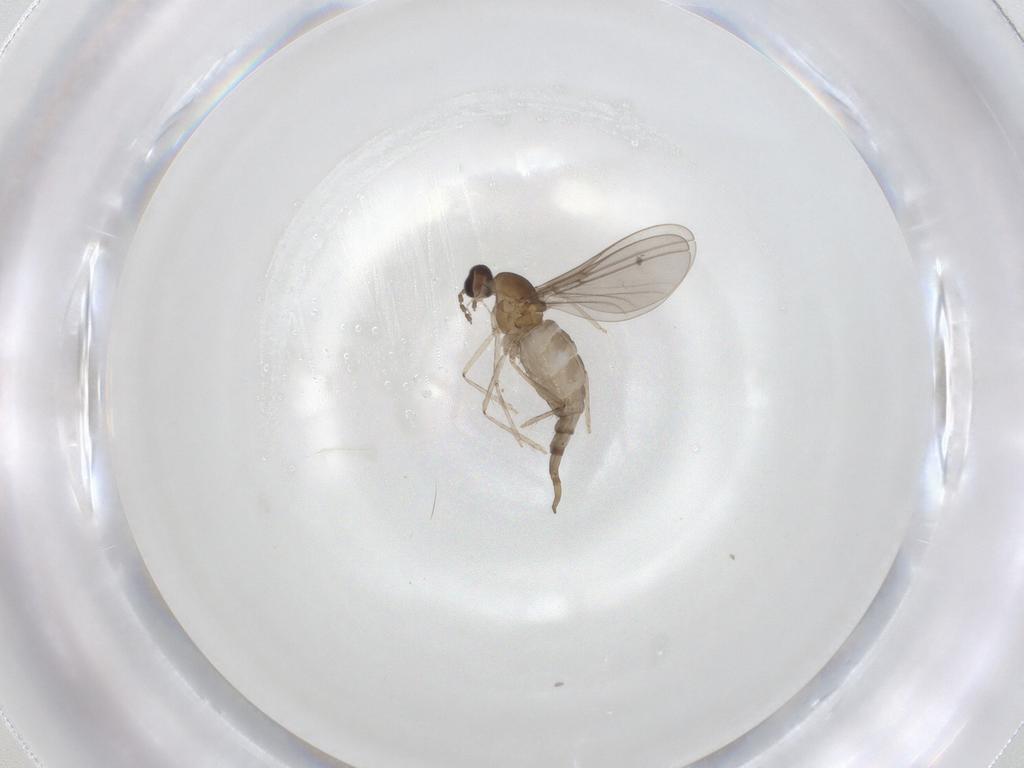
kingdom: Animalia
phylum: Arthropoda
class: Insecta
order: Diptera
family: Cecidomyiidae
